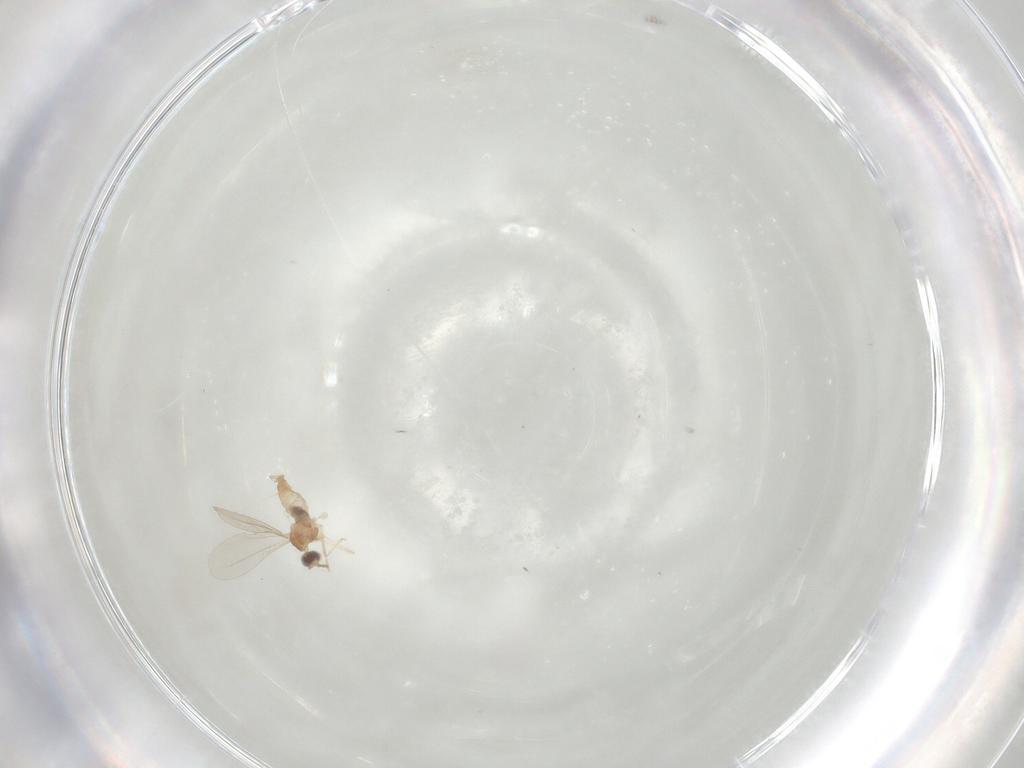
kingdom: Animalia
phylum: Arthropoda
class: Insecta
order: Diptera
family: Cecidomyiidae
